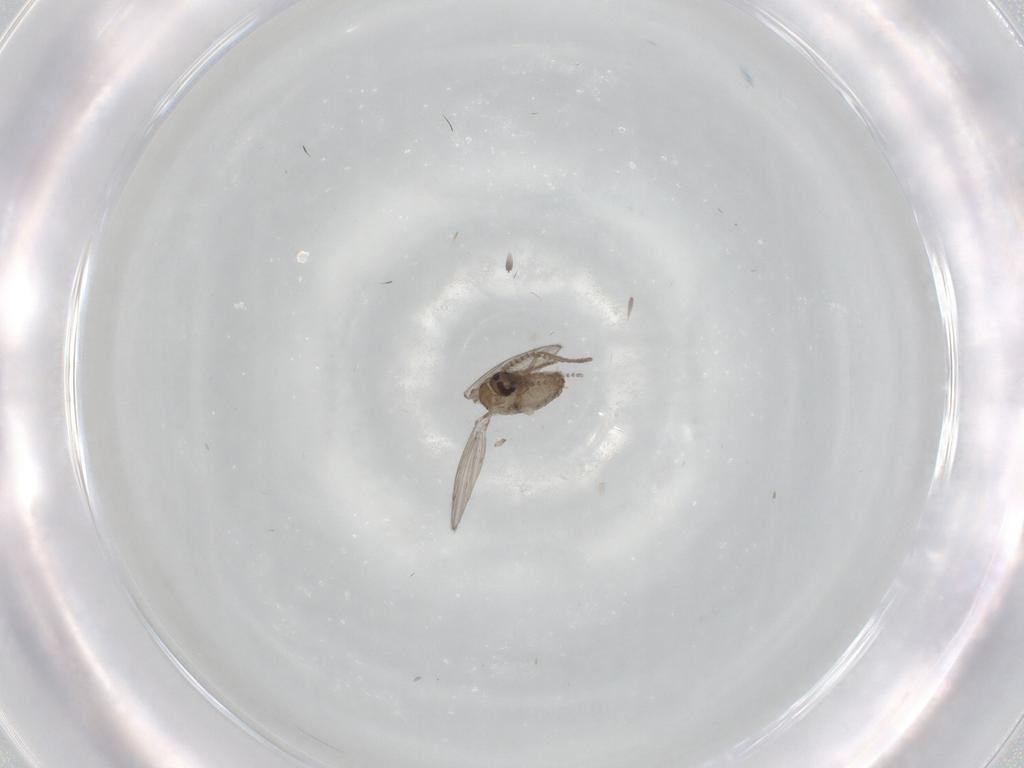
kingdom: Animalia
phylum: Arthropoda
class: Insecta
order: Diptera
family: Psychodidae
